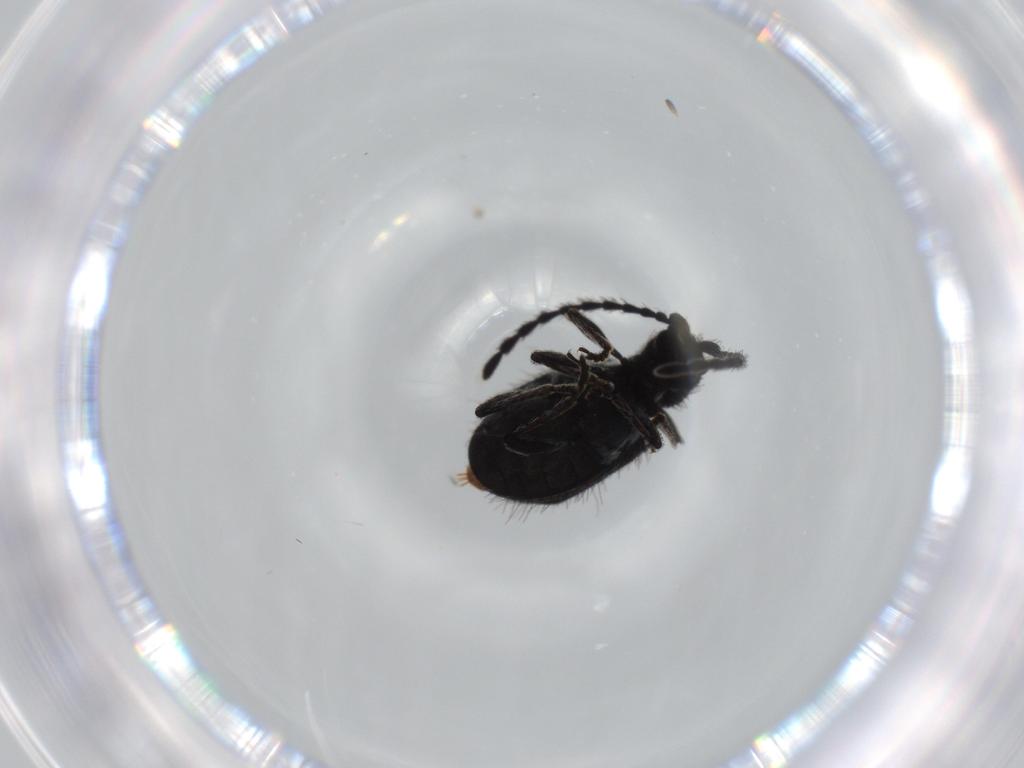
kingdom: Animalia
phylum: Arthropoda
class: Insecta
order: Coleoptera
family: Ptinidae
